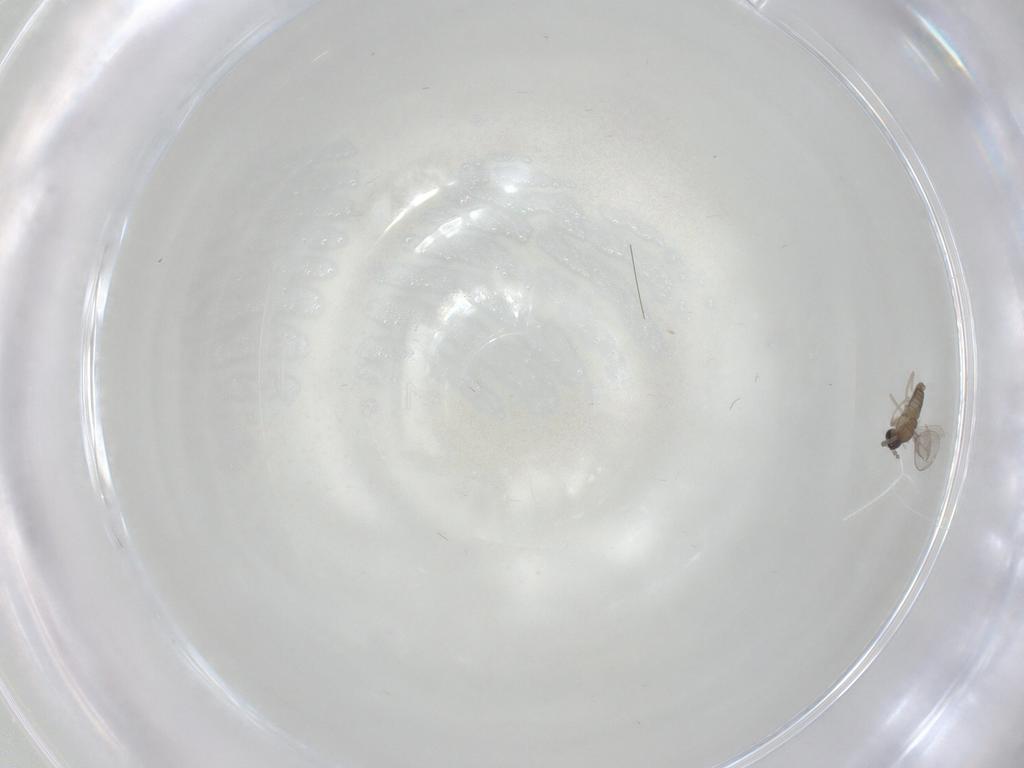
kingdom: Animalia
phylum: Arthropoda
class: Insecta
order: Diptera
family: Cecidomyiidae
